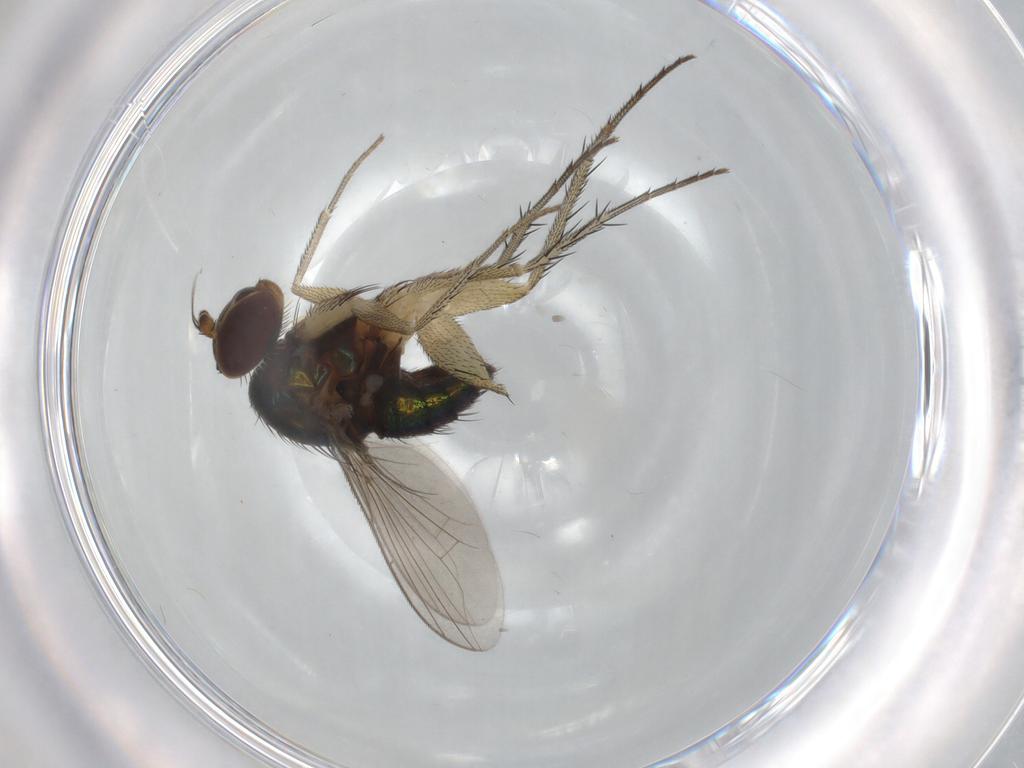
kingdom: Animalia
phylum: Arthropoda
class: Insecta
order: Diptera
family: Dolichopodidae
